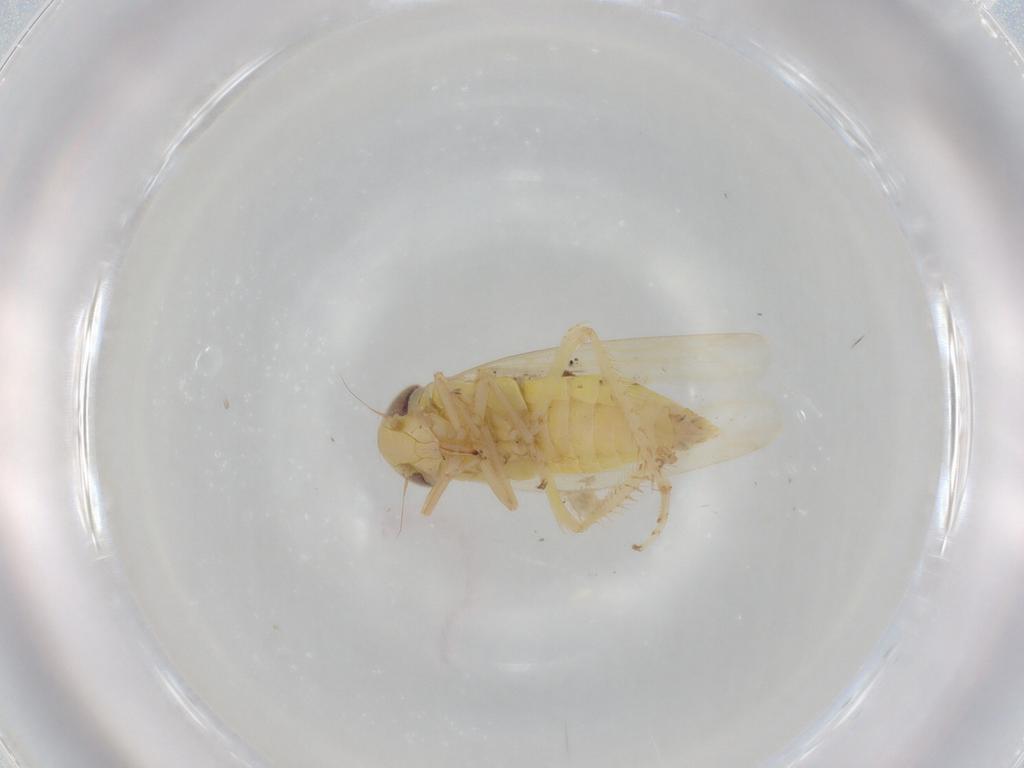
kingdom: Animalia
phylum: Arthropoda
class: Insecta
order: Hemiptera
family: Cicadellidae
